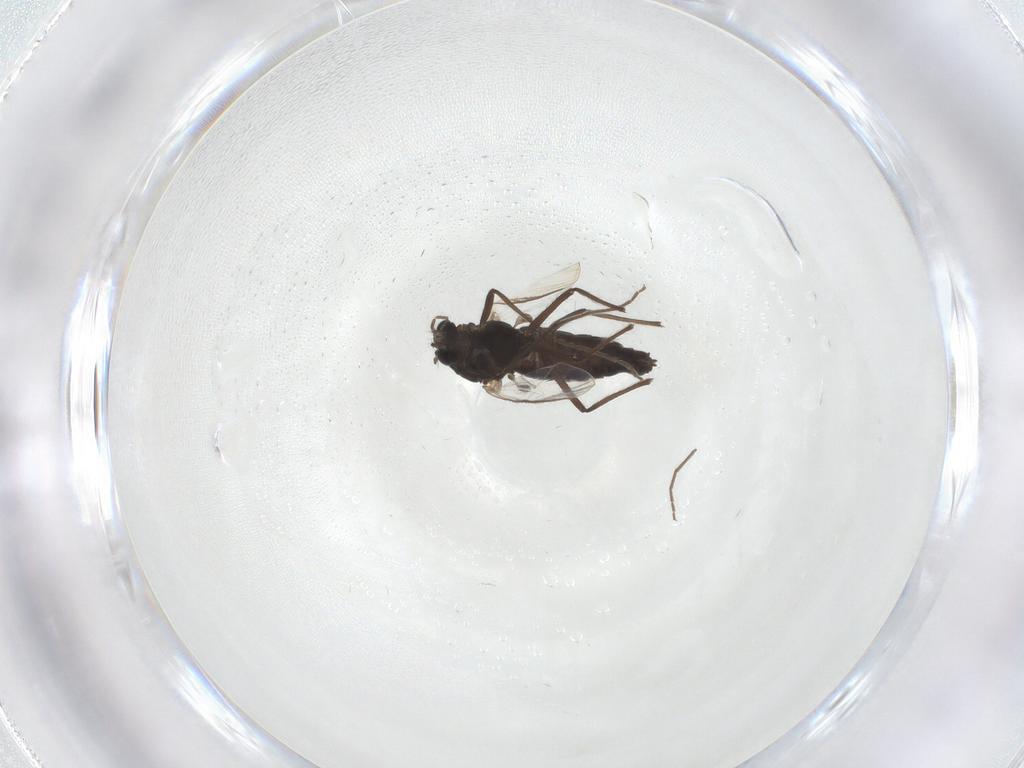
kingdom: Animalia
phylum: Arthropoda
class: Insecta
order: Diptera
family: Chironomidae
